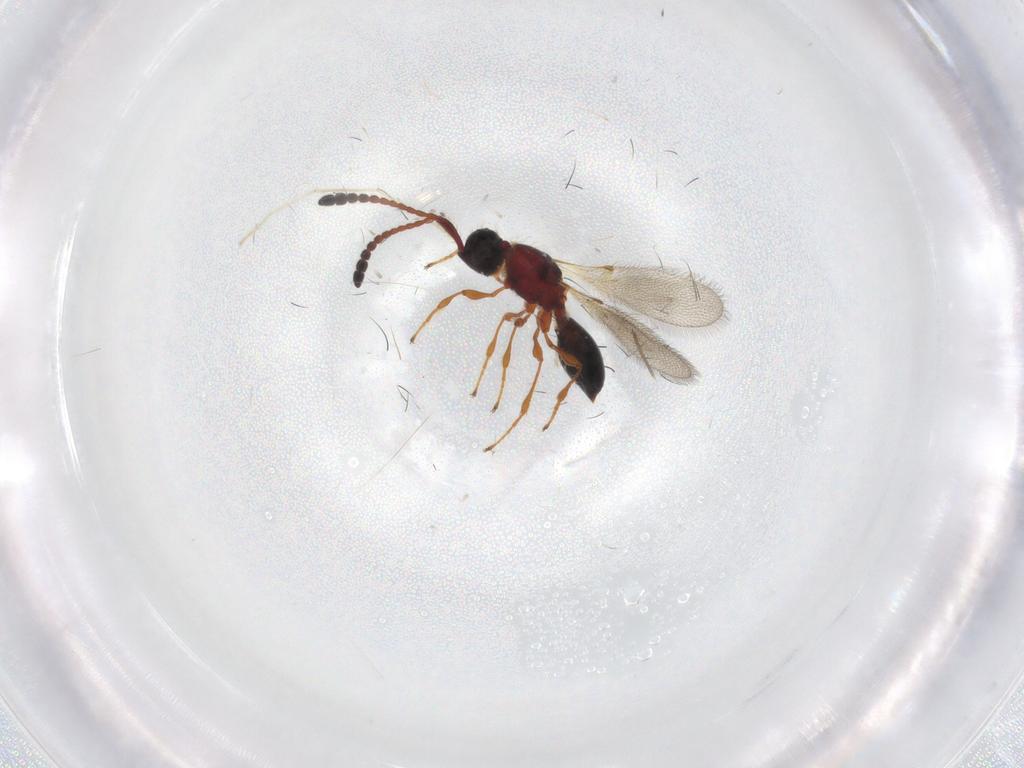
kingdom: Animalia
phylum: Arthropoda
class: Insecta
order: Hymenoptera
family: Diapriidae
